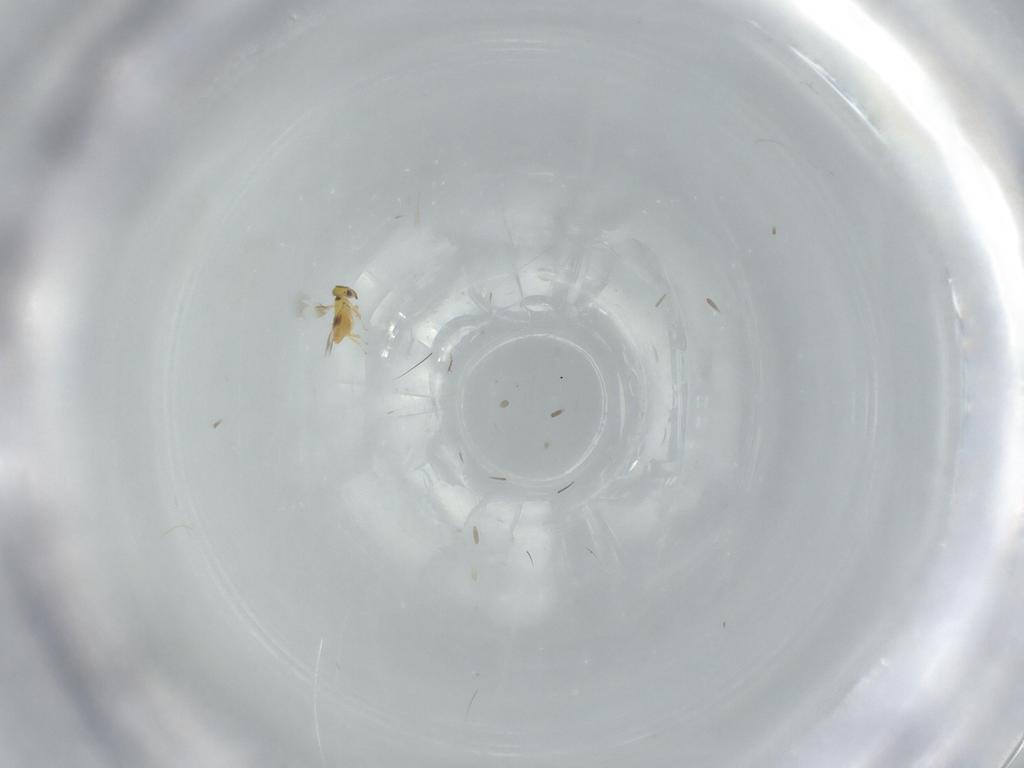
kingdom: Animalia
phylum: Arthropoda
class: Insecta
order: Hymenoptera
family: Signiphoridae
